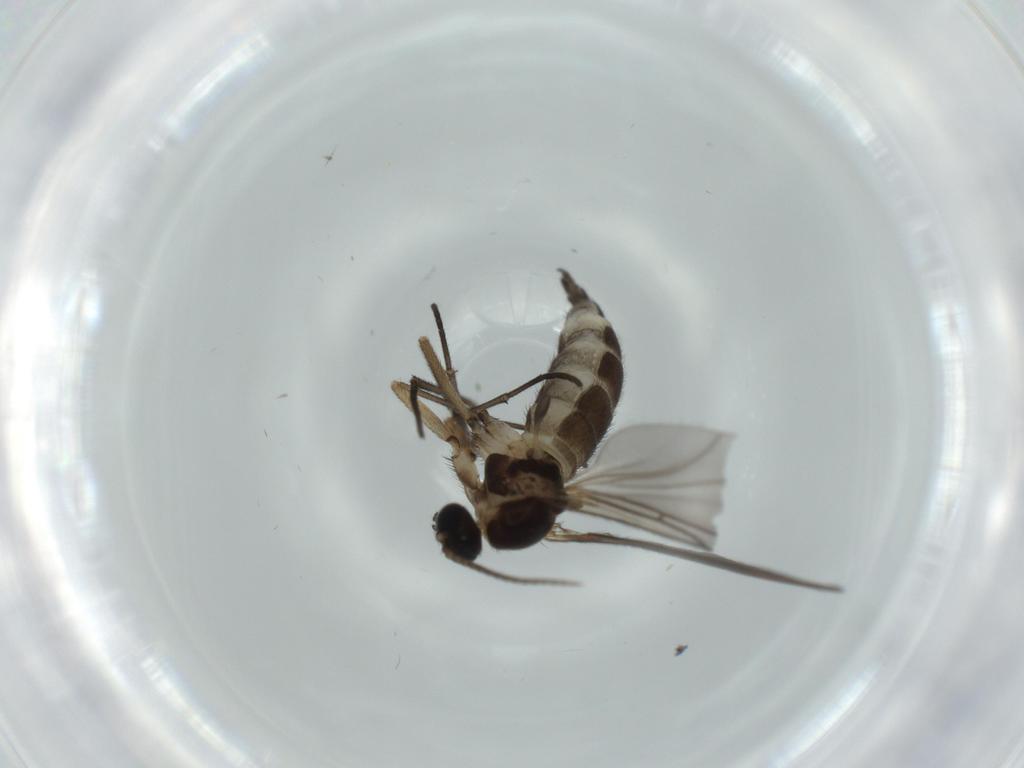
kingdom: Animalia
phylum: Arthropoda
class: Insecta
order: Diptera
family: Sciaridae
